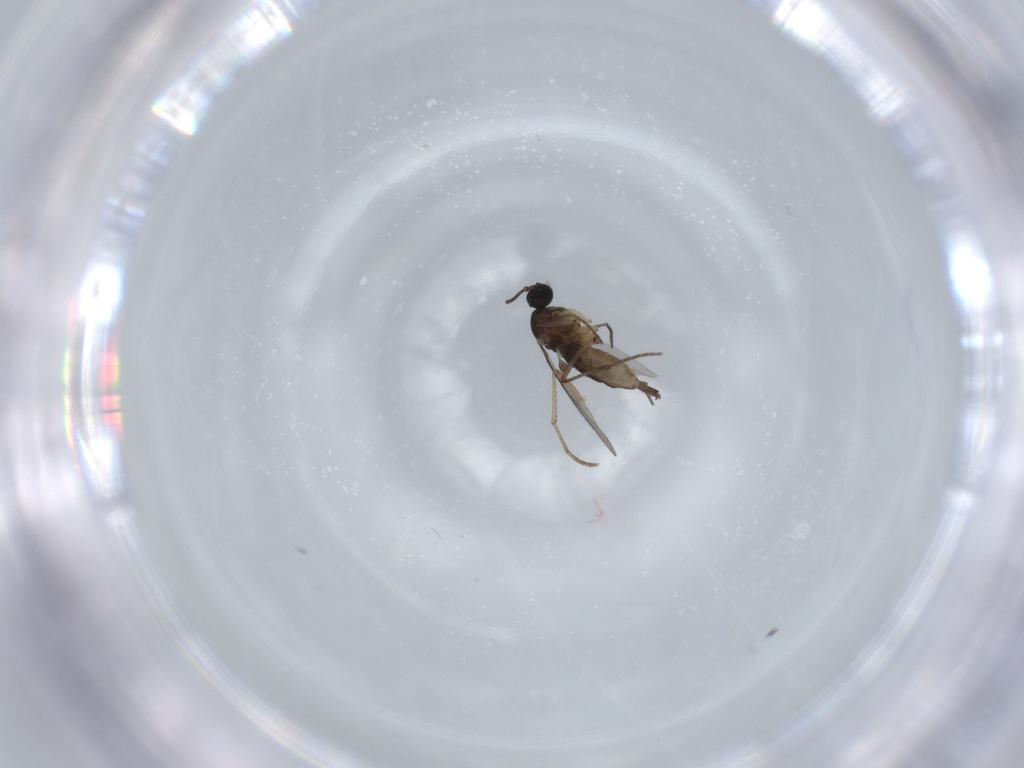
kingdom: Animalia
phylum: Arthropoda
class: Insecta
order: Diptera
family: Sciaridae
